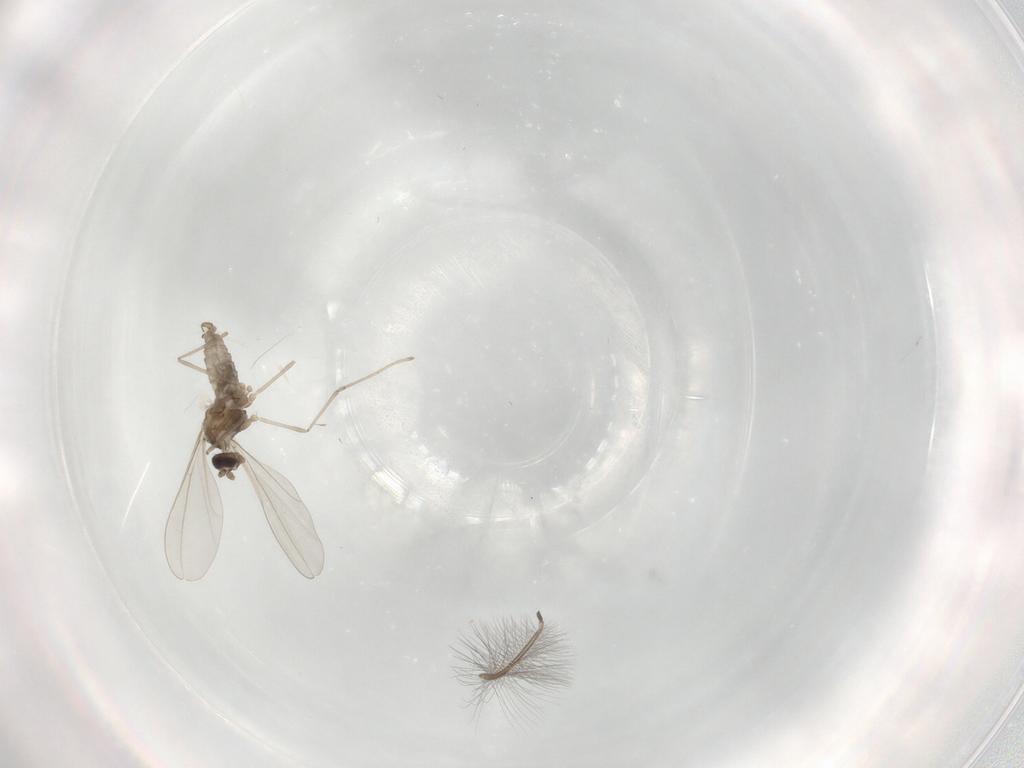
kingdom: Animalia
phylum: Arthropoda
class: Insecta
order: Diptera
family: Cecidomyiidae
